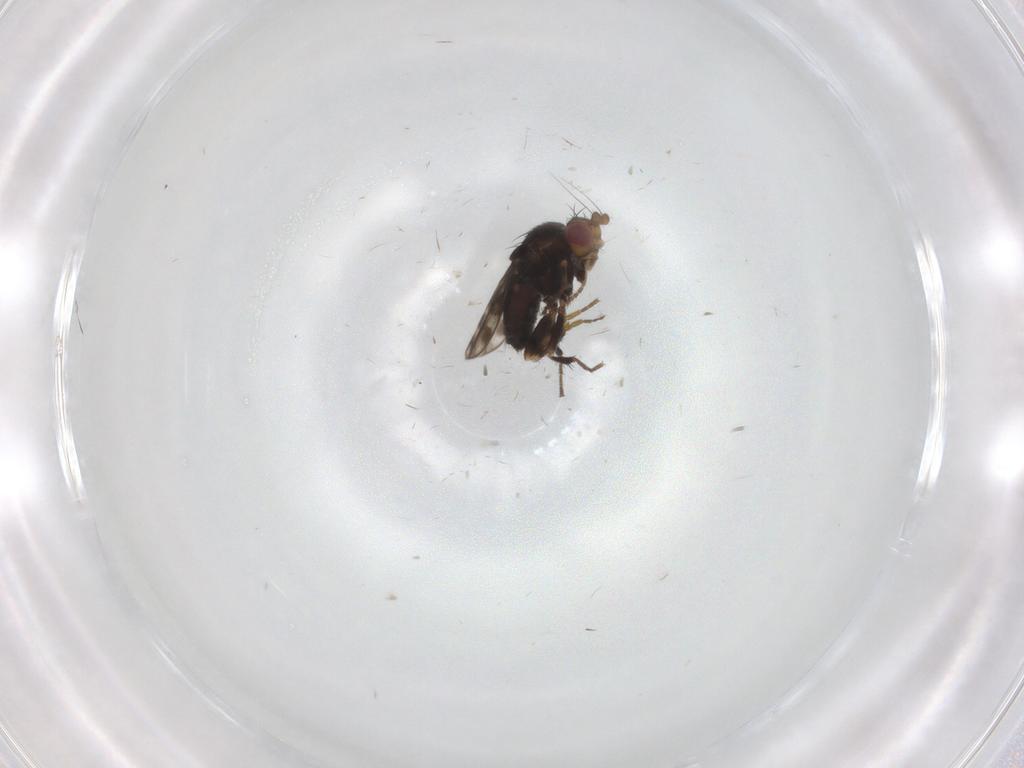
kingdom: Animalia
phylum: Arthropoda
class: Insecta
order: Diptera
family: Sphaeroceridae
